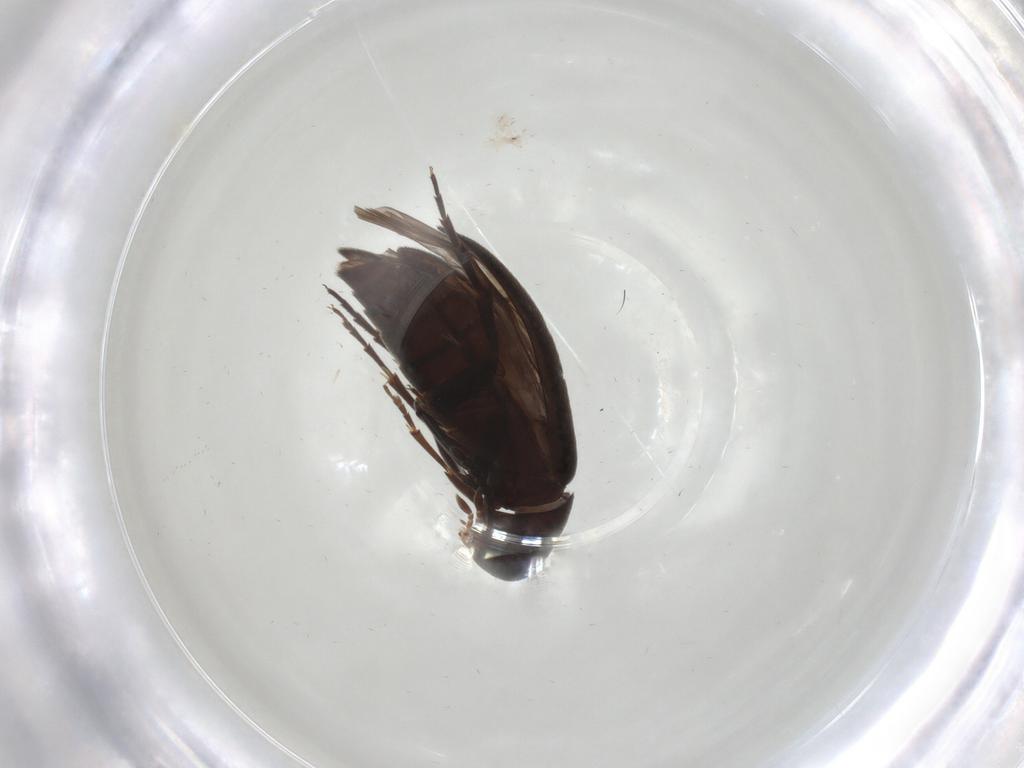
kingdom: Animalia
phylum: Arthropoda
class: Insecta
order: Coleoptera
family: Scraptiidae
